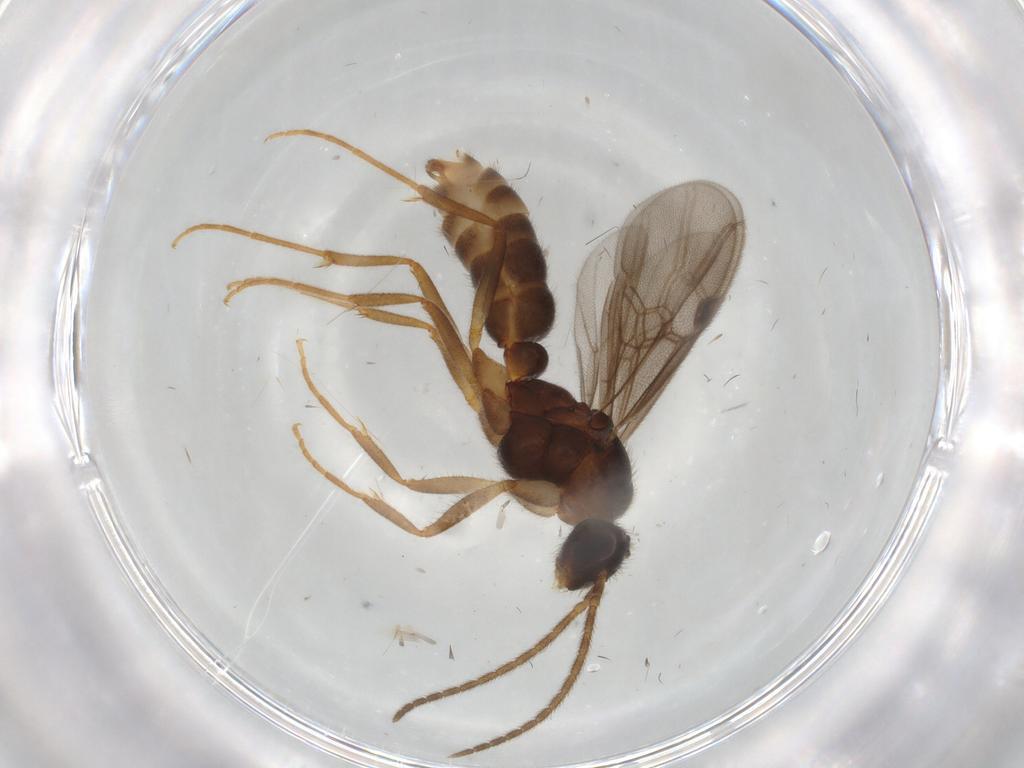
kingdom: Animalia
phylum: Arthropoda
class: Insecta
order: Hymenoptera
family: Formicidae
